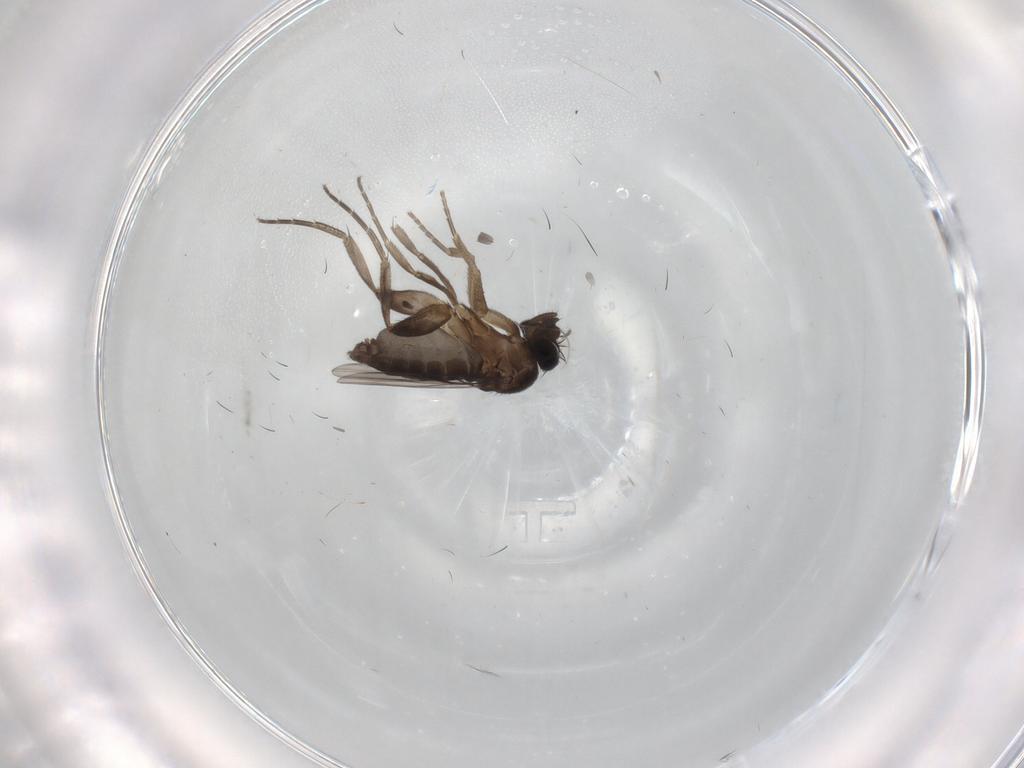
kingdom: Animalia
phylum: Arthropoda
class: Insecta
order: Diptera
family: Phoridae
